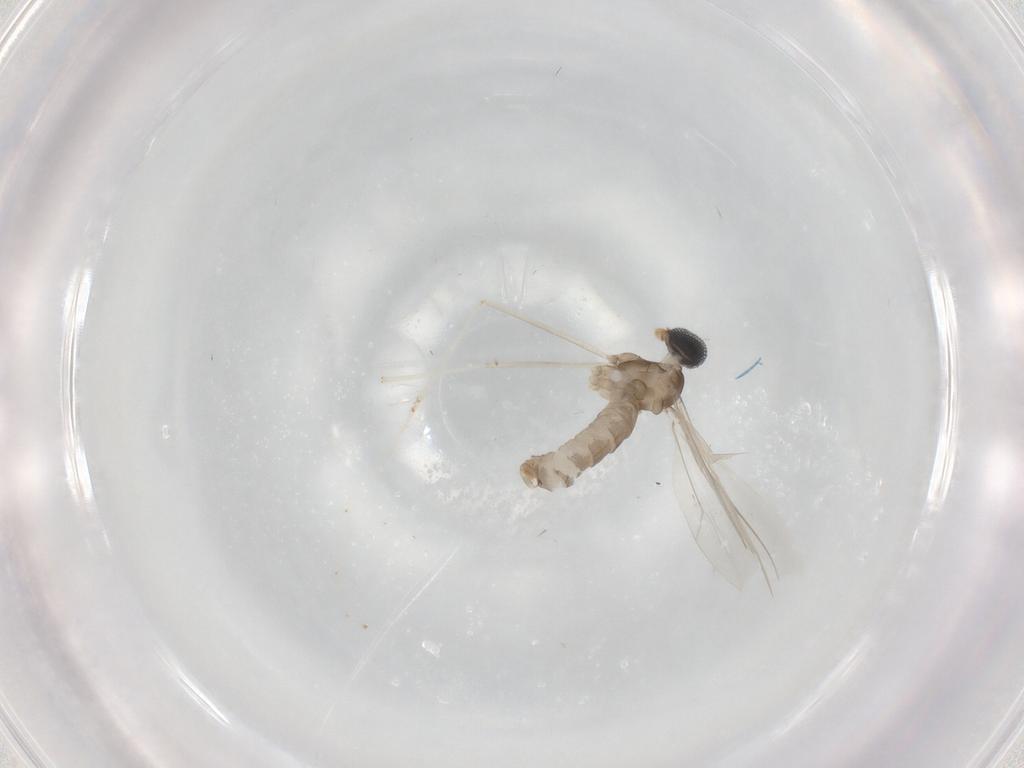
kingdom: Animalia
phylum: Arthropoda
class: Insecta
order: Diptera
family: Cecidomyiidae
